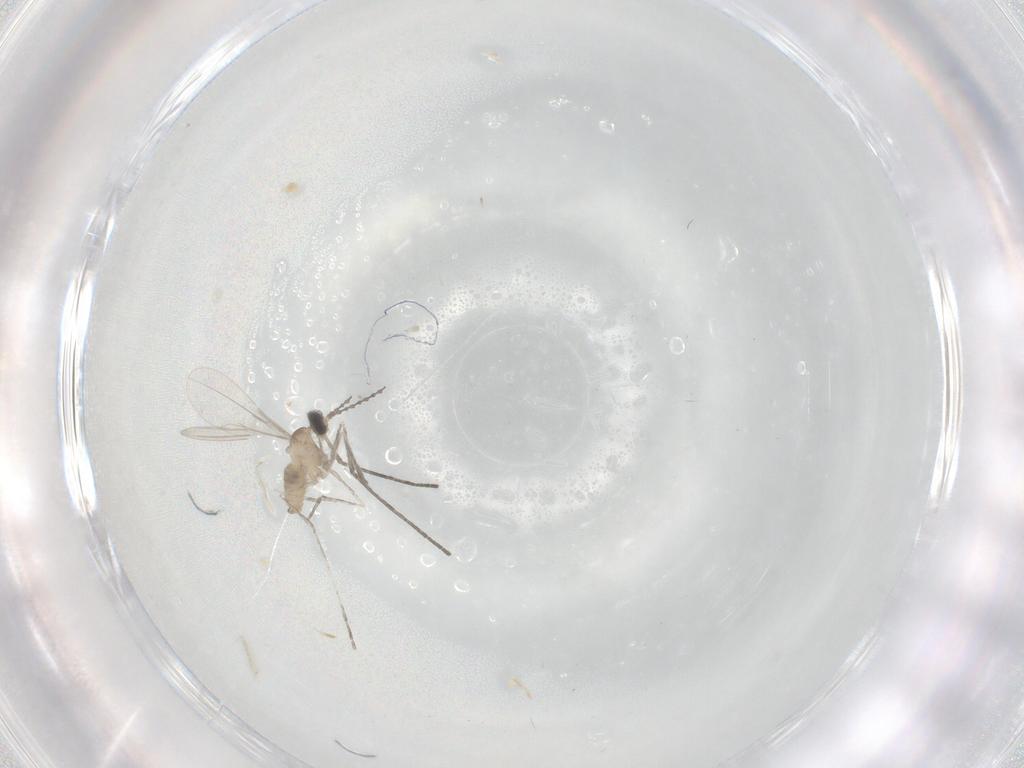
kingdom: Animalia
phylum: Arthropoda
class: Insecta
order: Diptera
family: Cecidomyiidae
